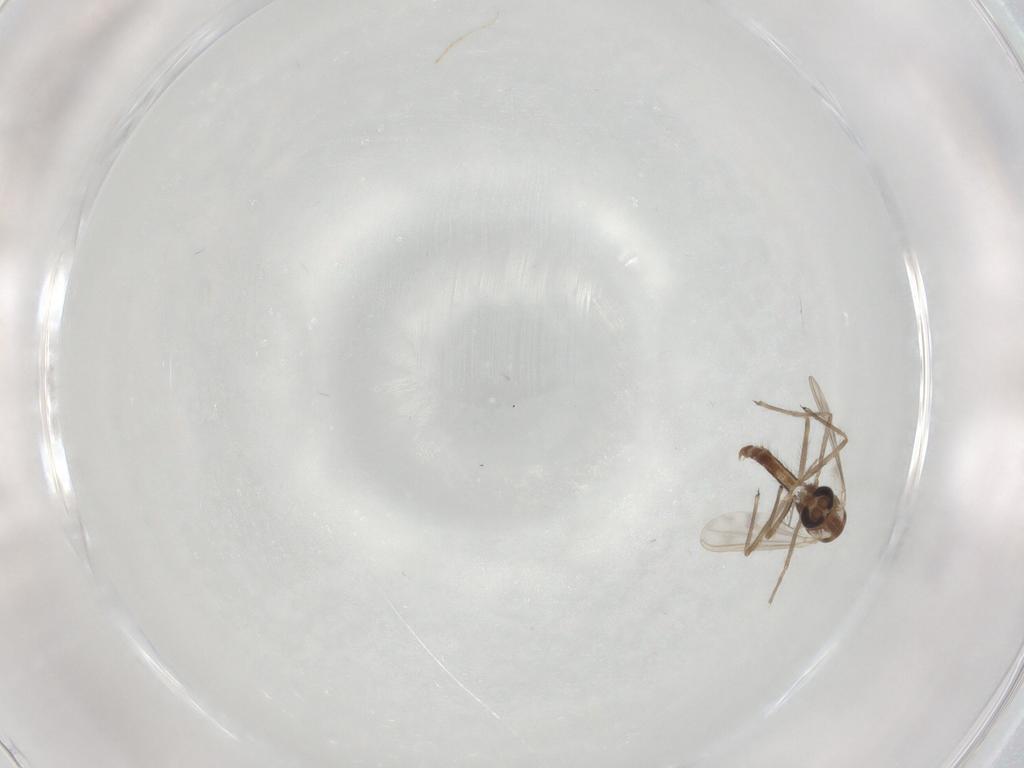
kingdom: Animalia
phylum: Arthropoda
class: Insecta
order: Diptera
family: Chironomidae
